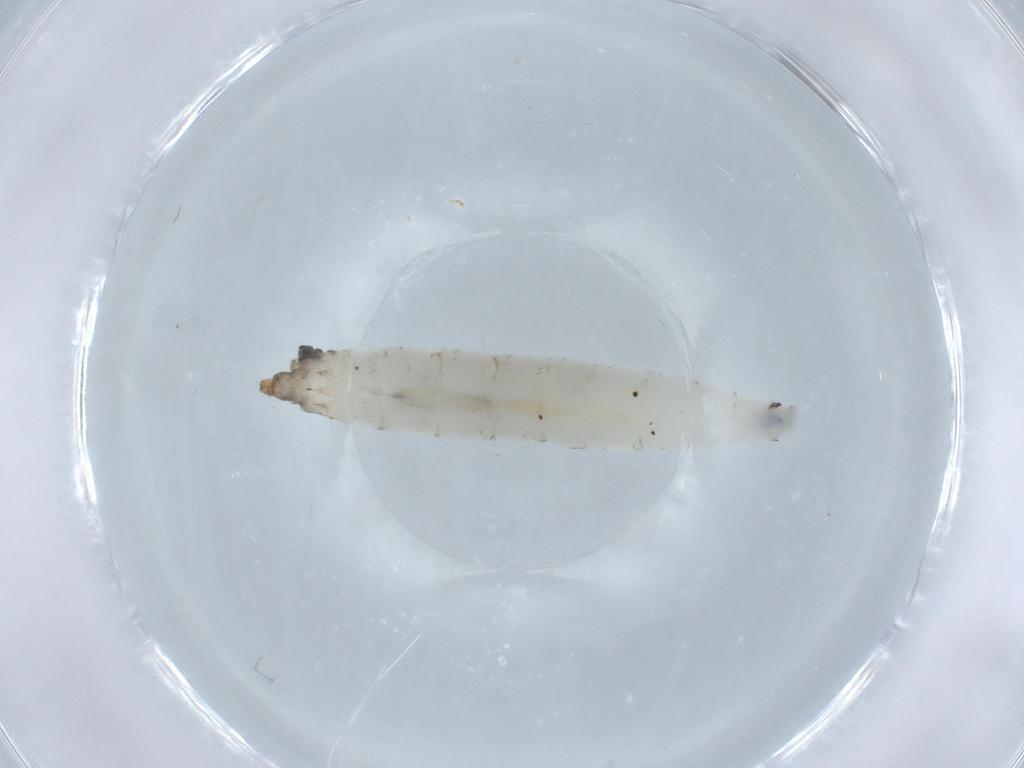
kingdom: Animalia
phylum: Arthropoda
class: Insecta
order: Diptera
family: Drosophilidae
